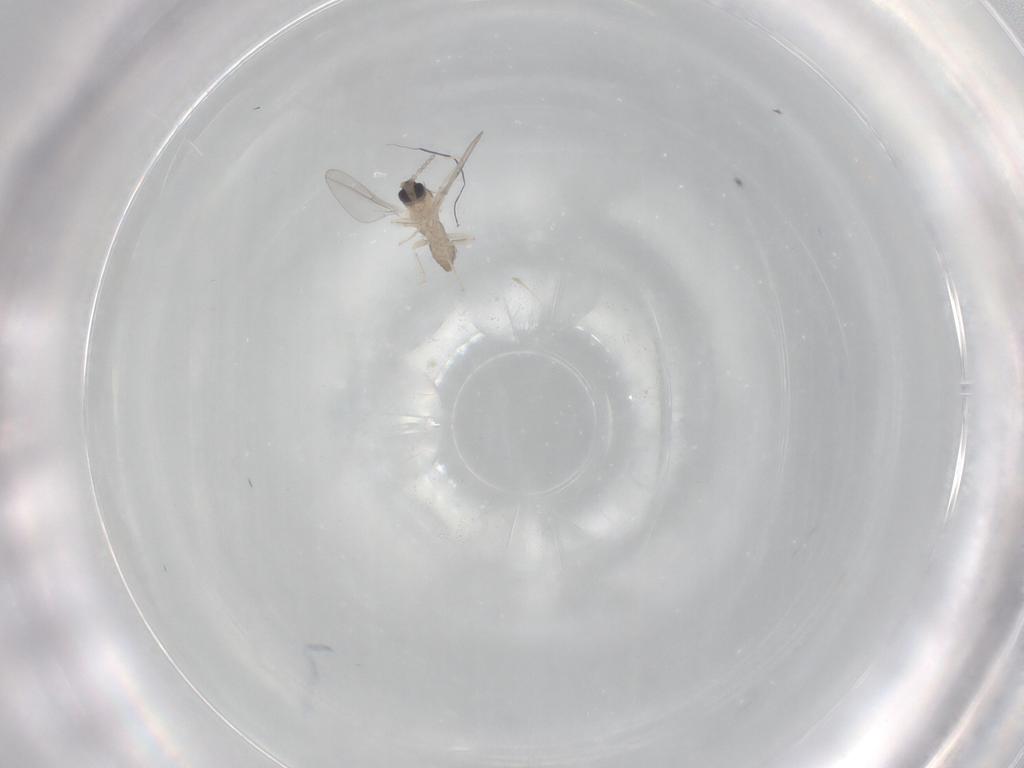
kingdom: Animalia
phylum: Arthropoda
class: Insecta
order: Diptera
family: Cecidomyiidae
